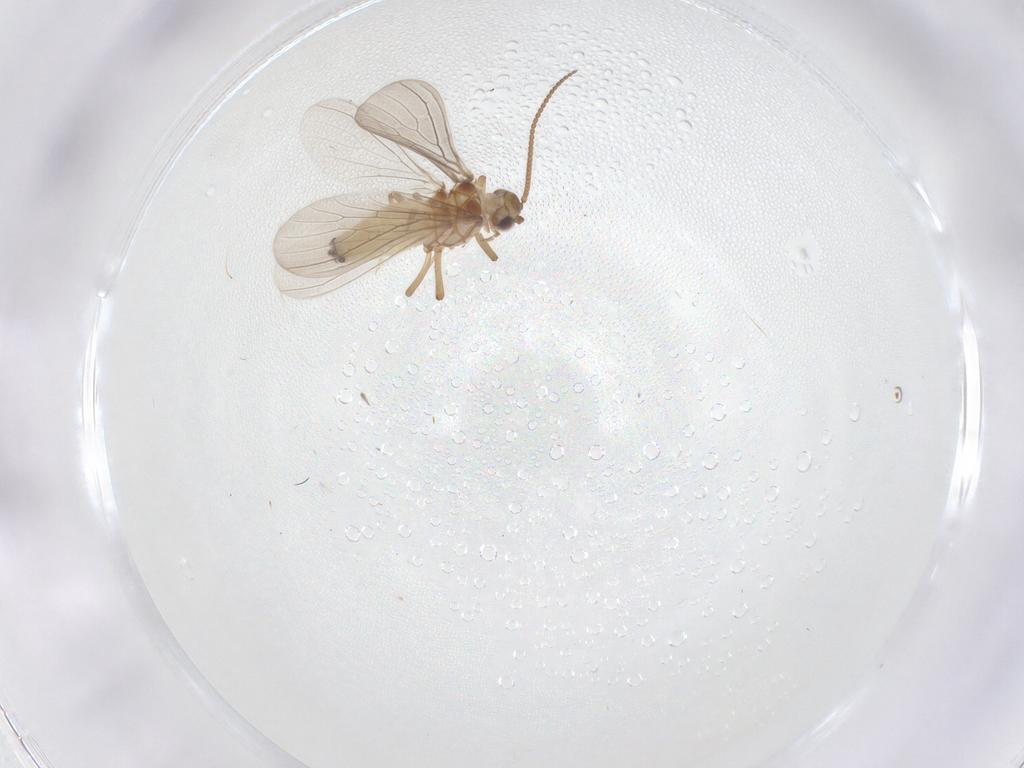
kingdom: Animalia
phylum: Arthropoda
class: Insecta
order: Neuroptera
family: Coniopterygidae
